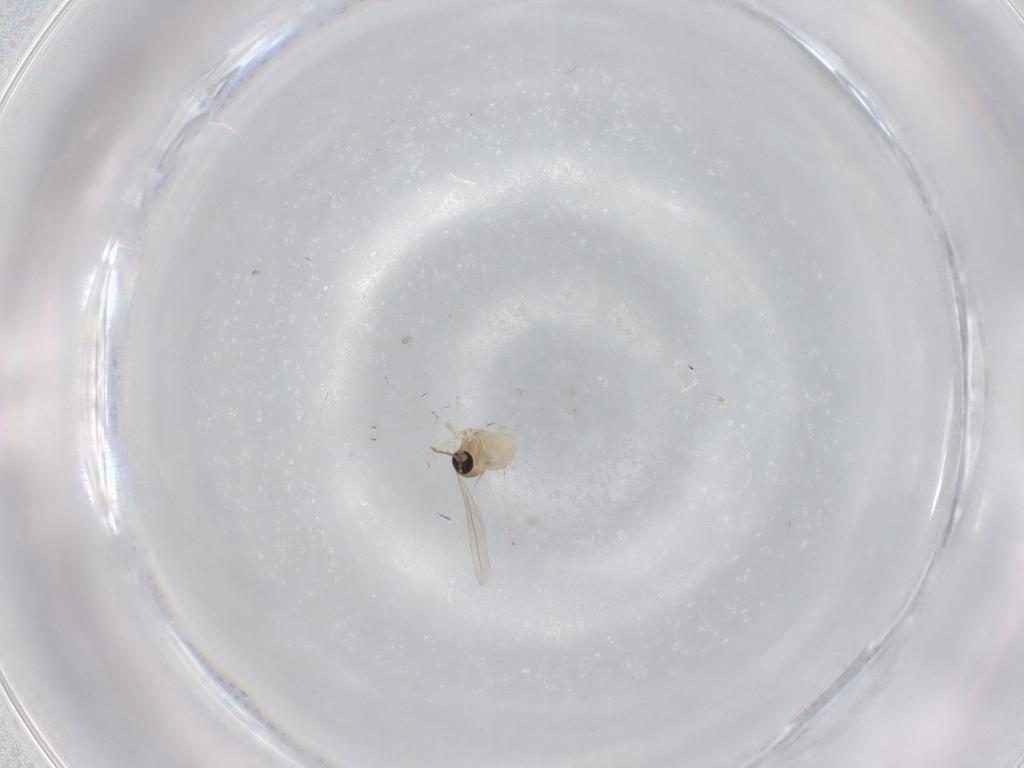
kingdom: Animalia
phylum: Arthropoda
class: Insecta
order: Diptera
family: Cecidomyiidae
